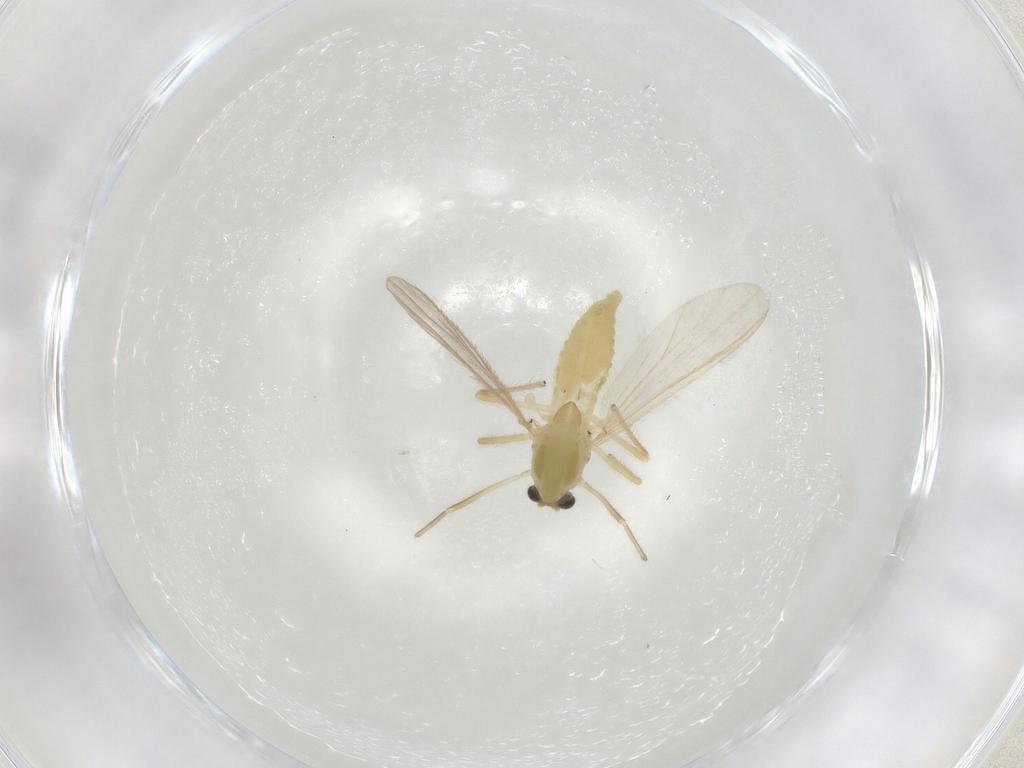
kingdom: Animalia
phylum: Arthropoda
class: Insecta
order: Diptera
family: Chironomidae
